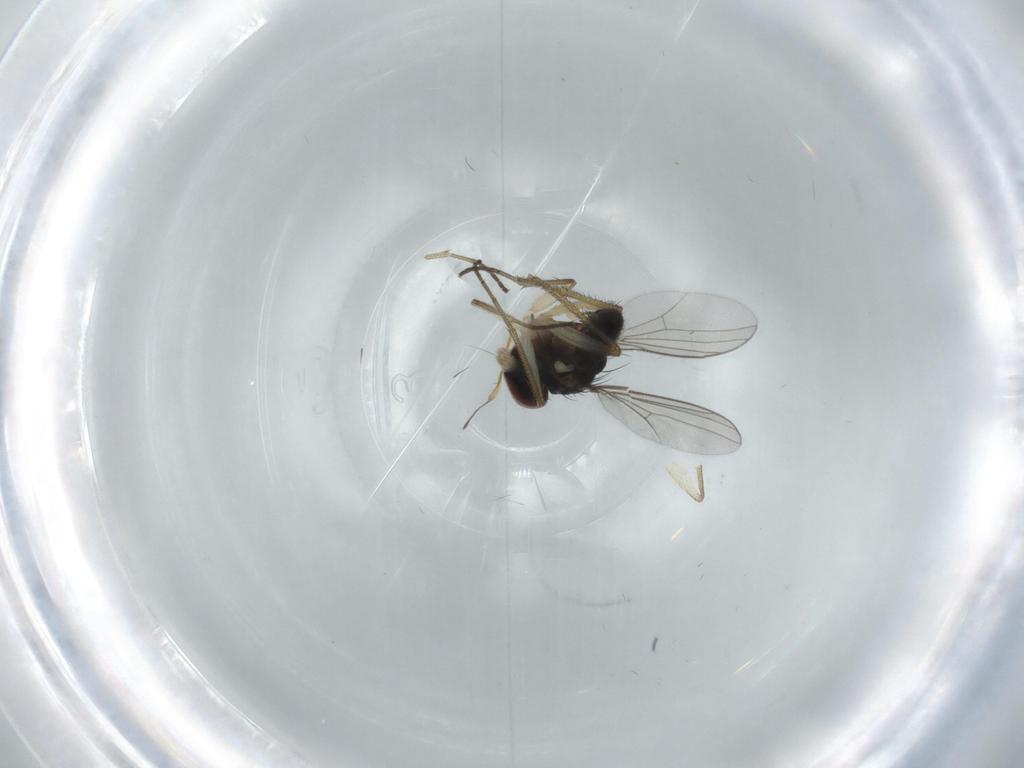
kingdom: Animalia
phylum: Arthropoda
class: Insecta
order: Diptera
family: Dolichopodidae
